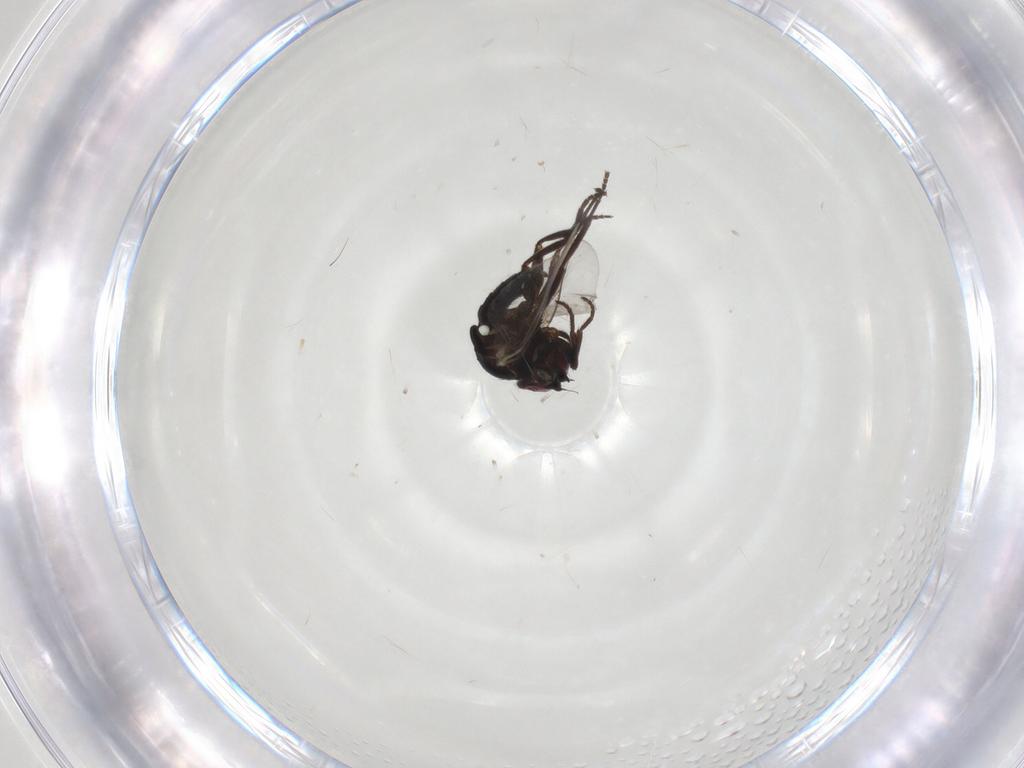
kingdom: Animalia
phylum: Arthropoda
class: Insecta
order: Diptera
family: Agromyzidae
